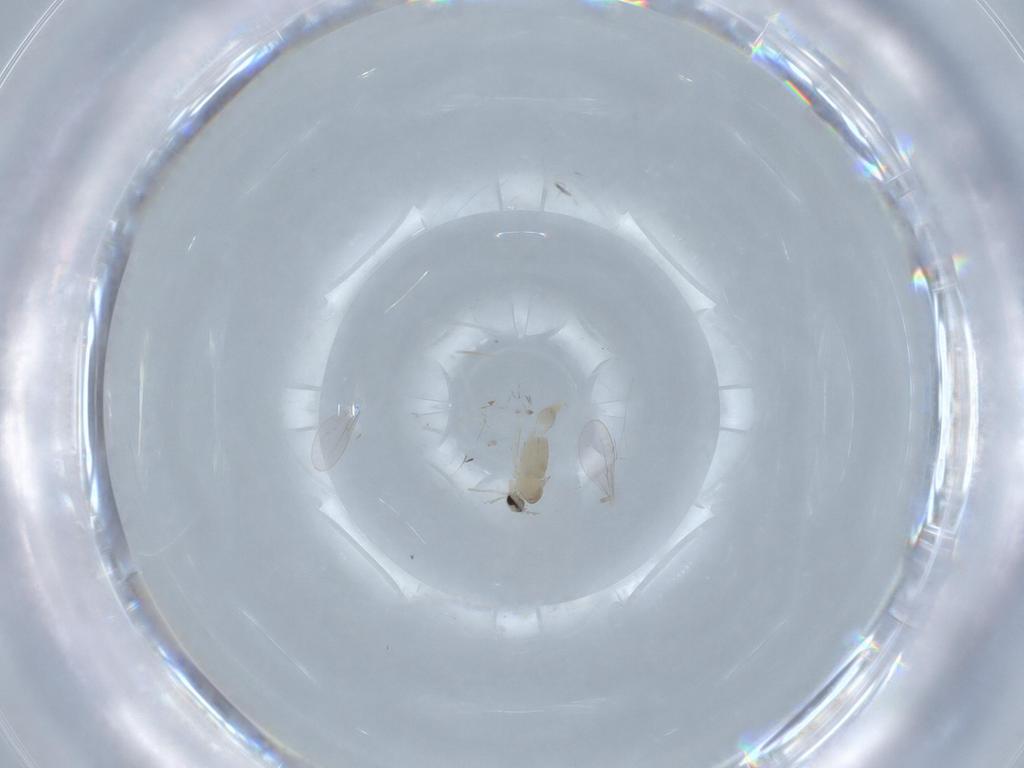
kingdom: Animalia
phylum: Arthropoda
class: Insecta
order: Diptera
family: Cecidomyiidae
